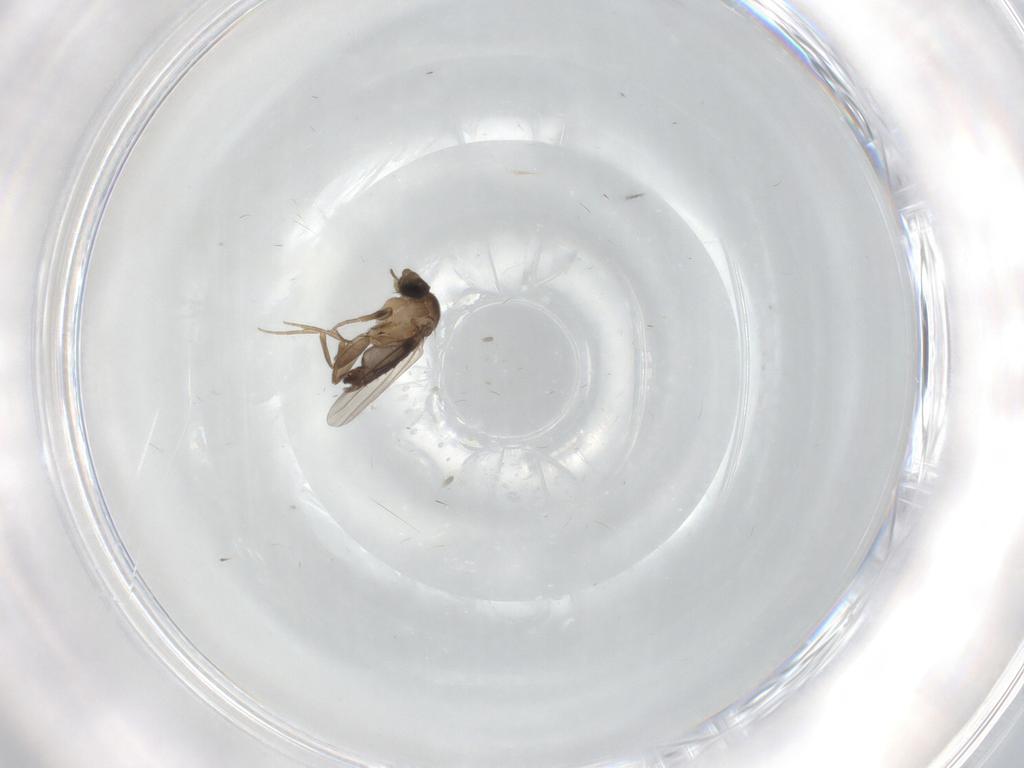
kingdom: Animalia
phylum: Arthropoda
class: Insecta
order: Diptera
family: Phoridae
